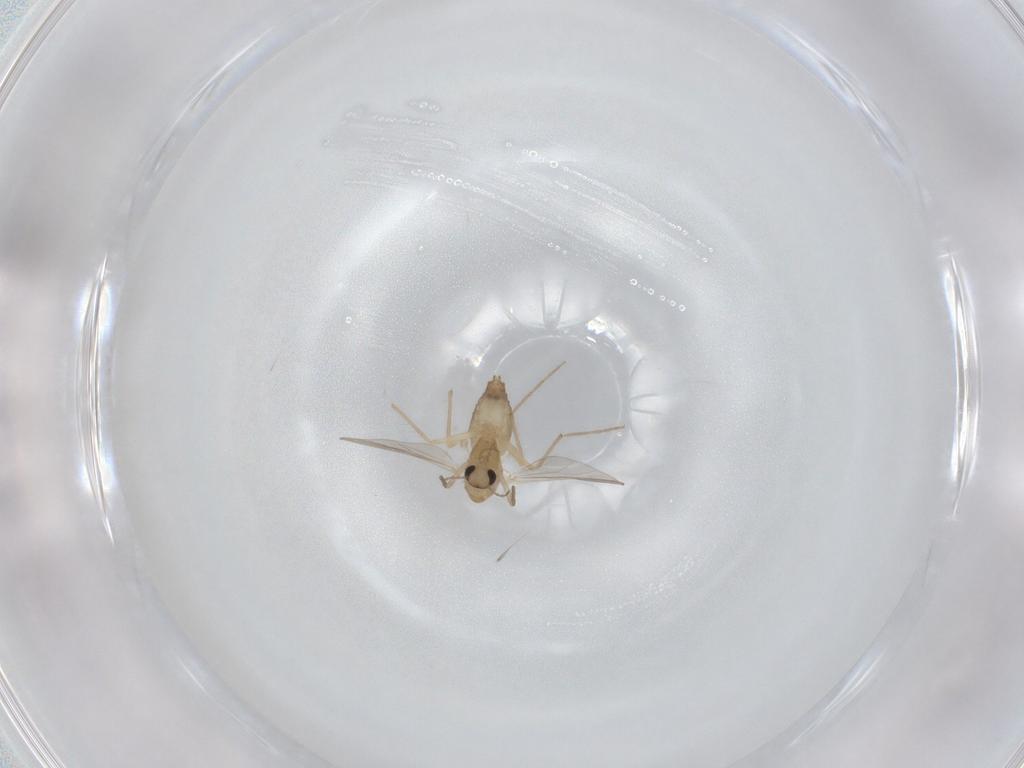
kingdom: Animalia
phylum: Arthropoda
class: Insecta
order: Diptera
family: Chironomidae
